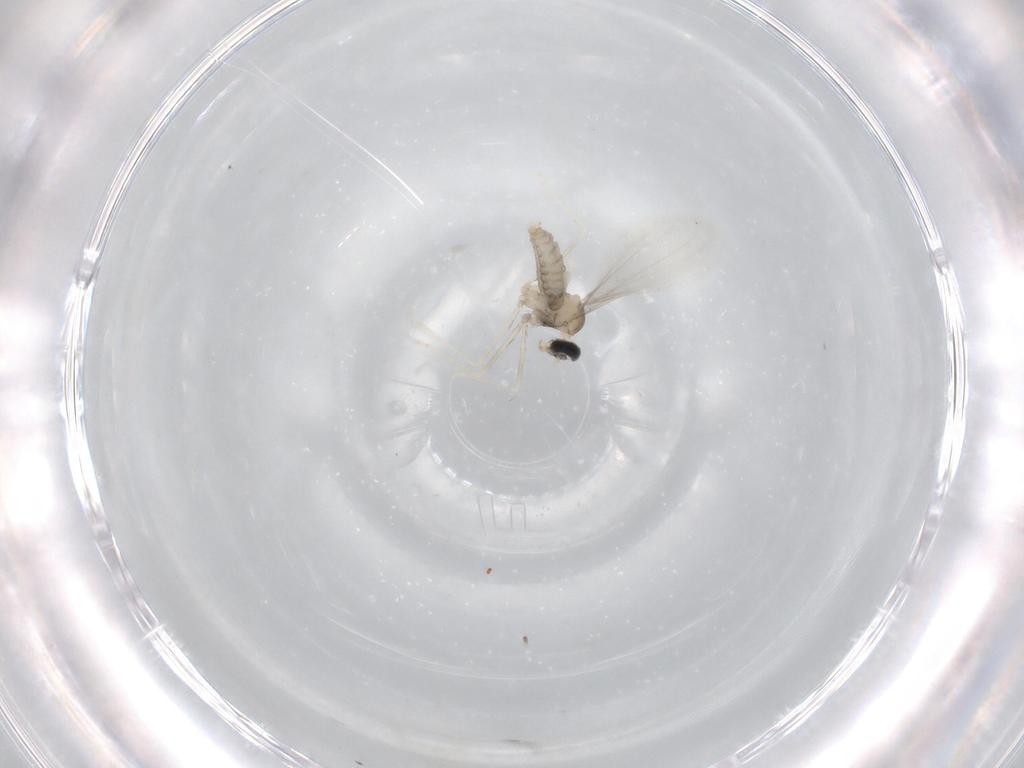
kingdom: Animalia
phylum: Arthropoda
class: Insecta
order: Diptera
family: Cecidomyiidae
